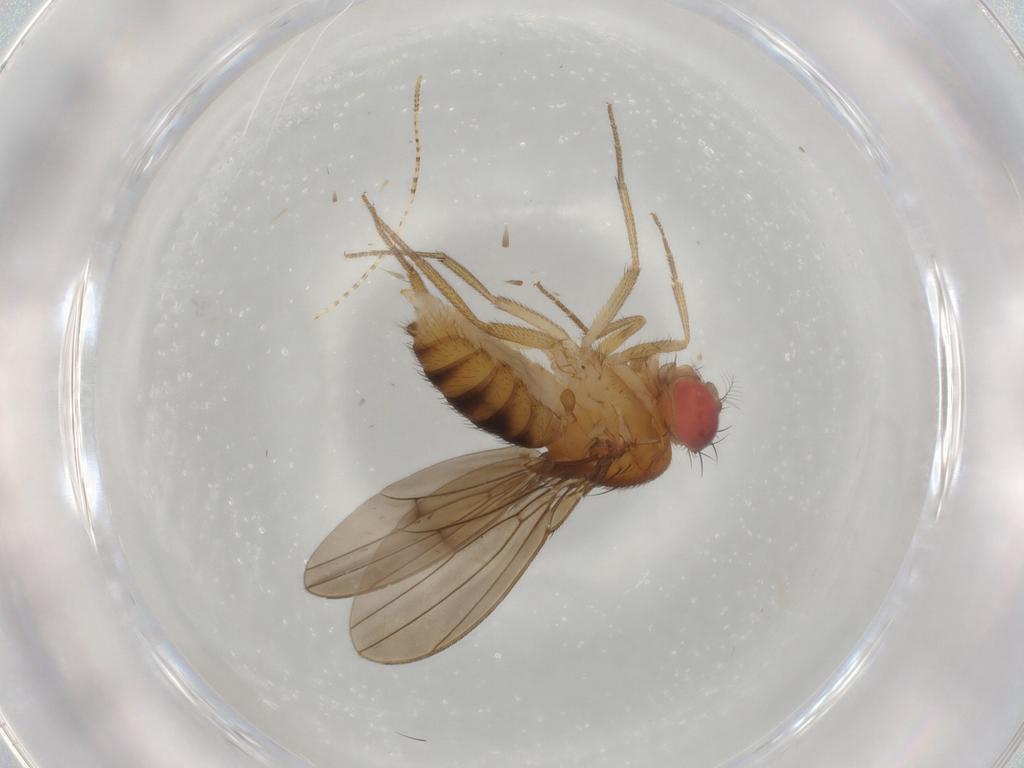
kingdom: Animalia
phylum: Arthropoda
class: Insecta
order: Diptera
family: Drosophilidae
